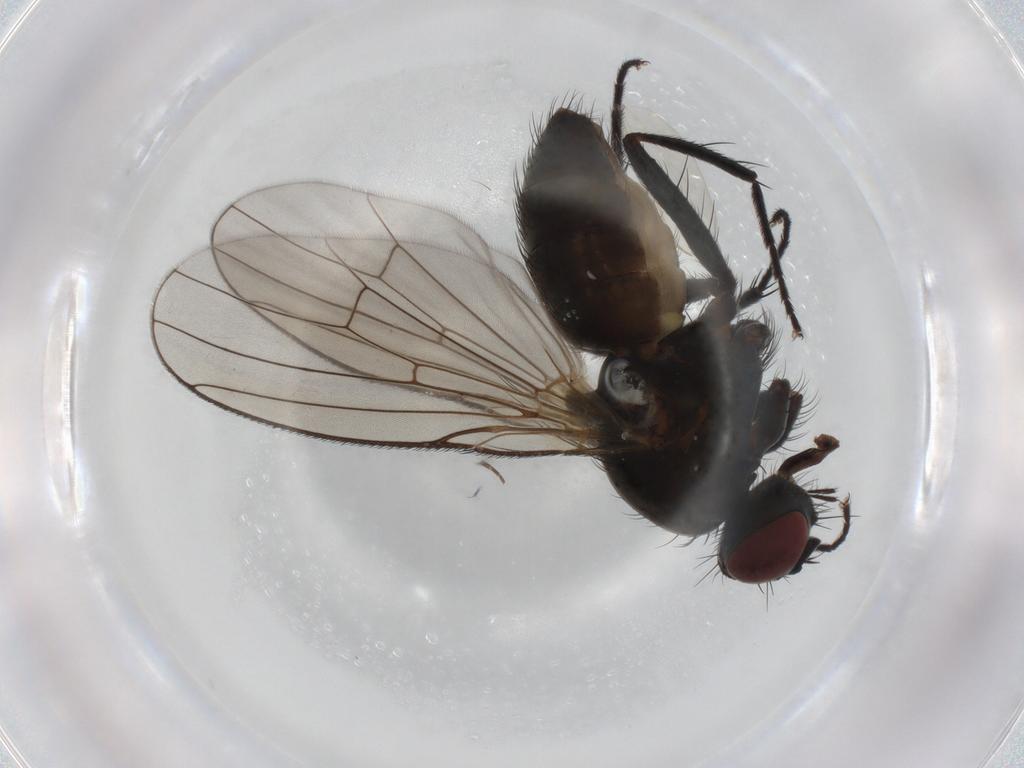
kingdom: Animalia
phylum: Arthropoda
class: Insecta
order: Diptera
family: Muscidae
